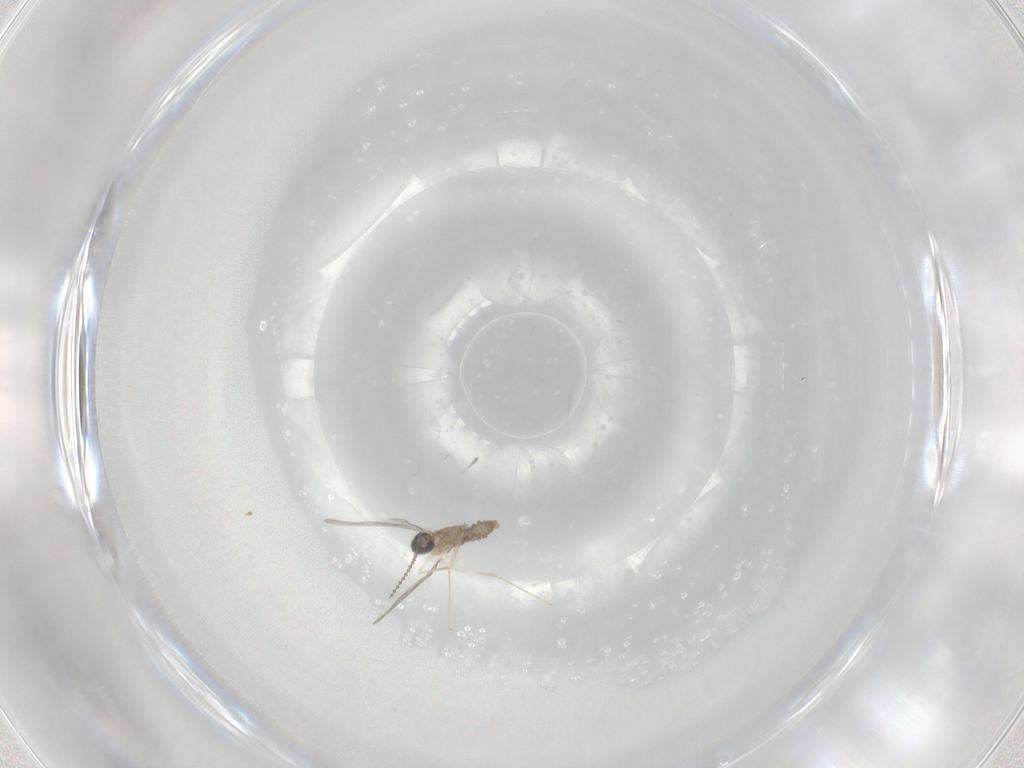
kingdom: Animalia
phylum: Arthropoda
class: Insecta
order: Diptera
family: Cecidomyiidae
